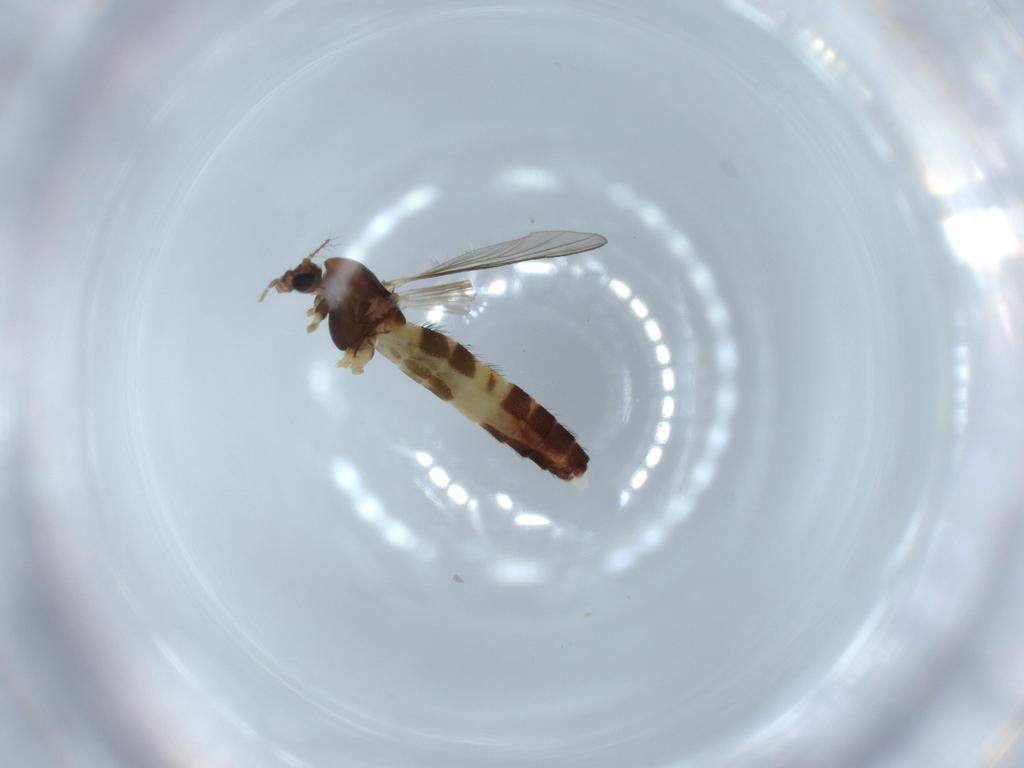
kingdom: Animalia
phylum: Arthropoda
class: Insecta
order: Diptera
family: Chironomidae
